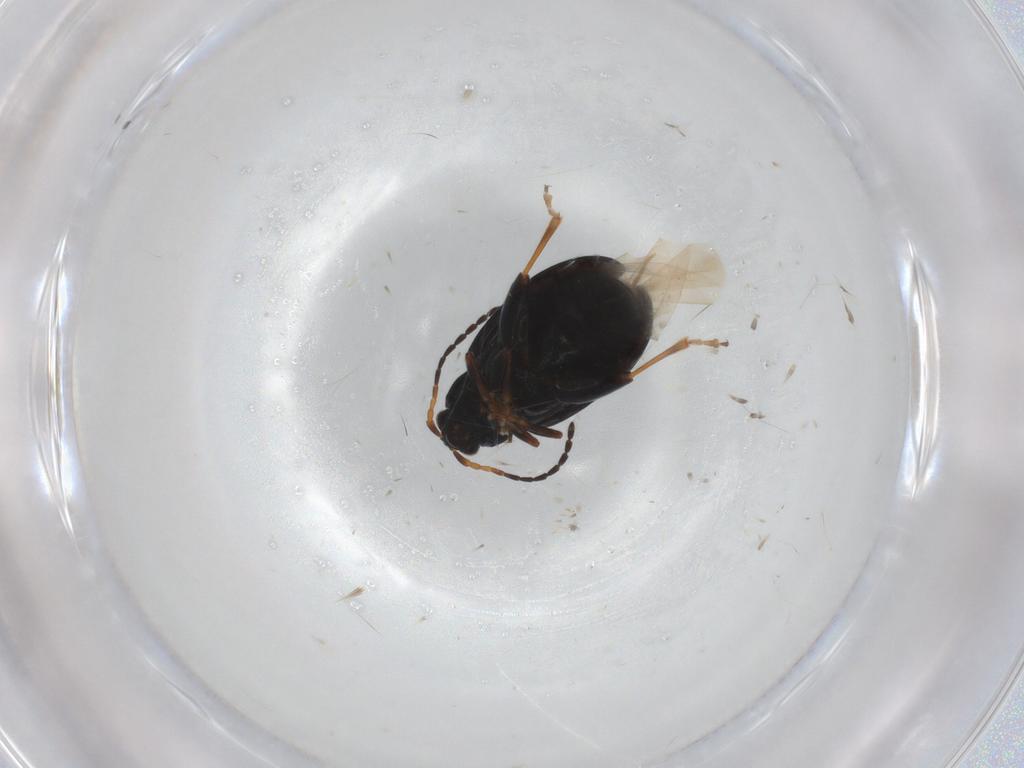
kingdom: Animalia
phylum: Arthropoda
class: Insecta
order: Coleoptera
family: Chrysomelidae
